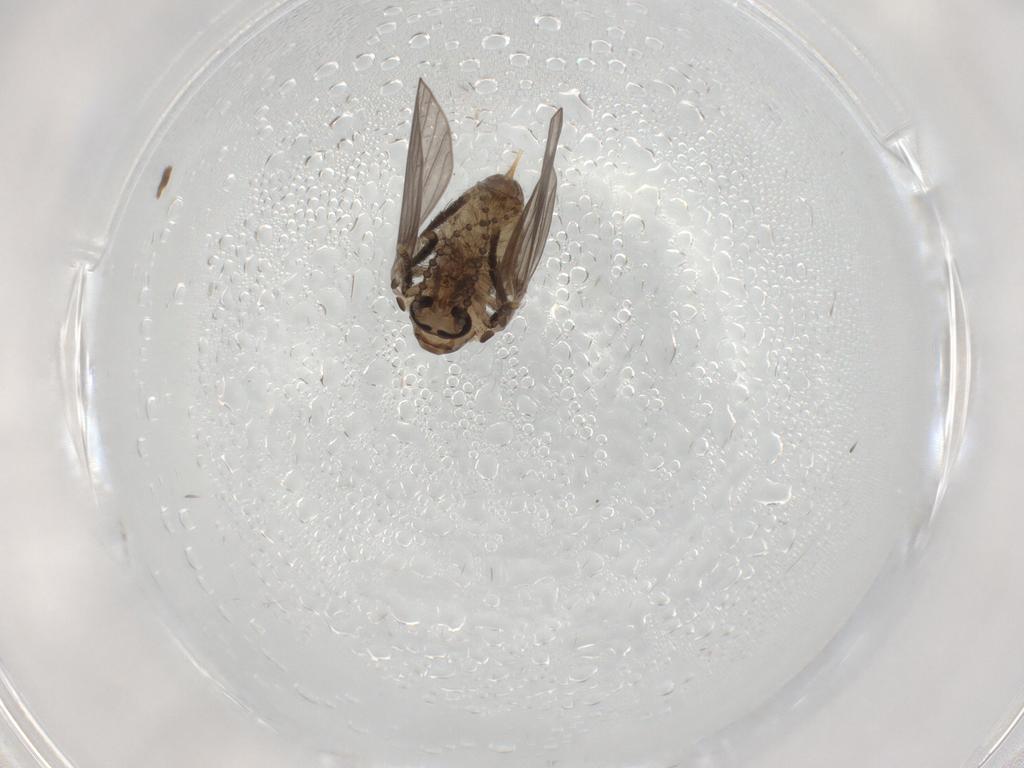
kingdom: Animalia
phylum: Arthropoda
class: Insecta
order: Diptera
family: Psychodidae
